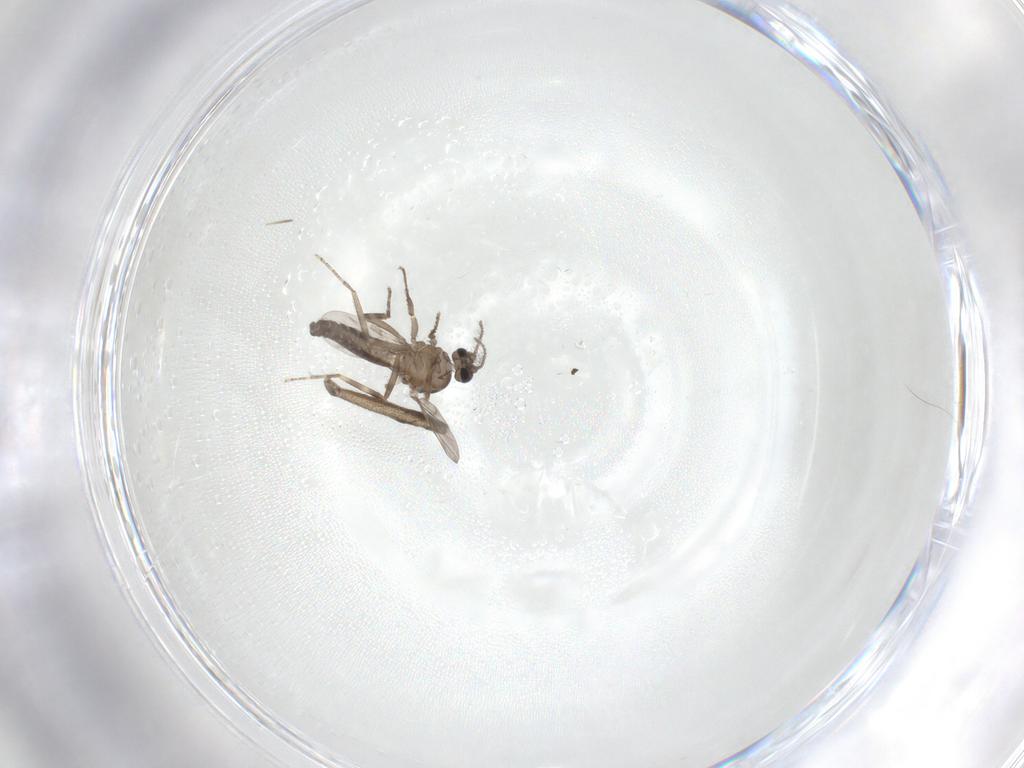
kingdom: Animalia
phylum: Arthropoda
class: Insecta
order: Diptera
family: Ceratopogonidae
